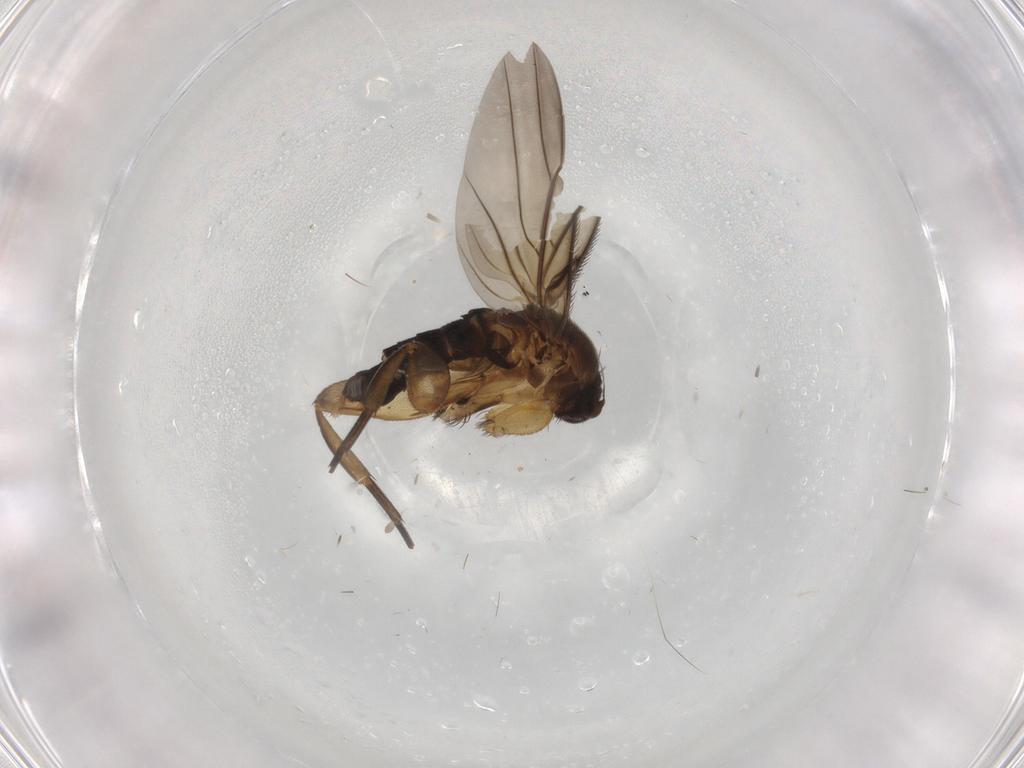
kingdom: Animalia
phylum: Arthropoda
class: Insecta
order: Diptera
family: Phoridae
